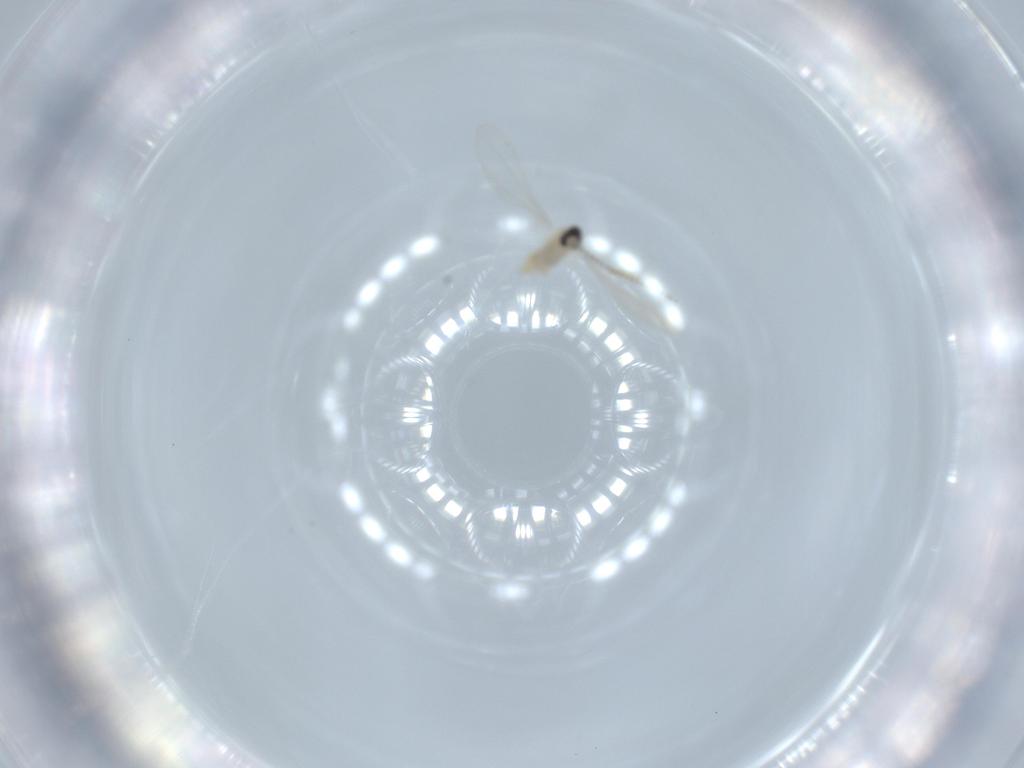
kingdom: Animalia
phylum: Arthropoda
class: Insecta
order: Diptera
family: Cecidomyiidae
